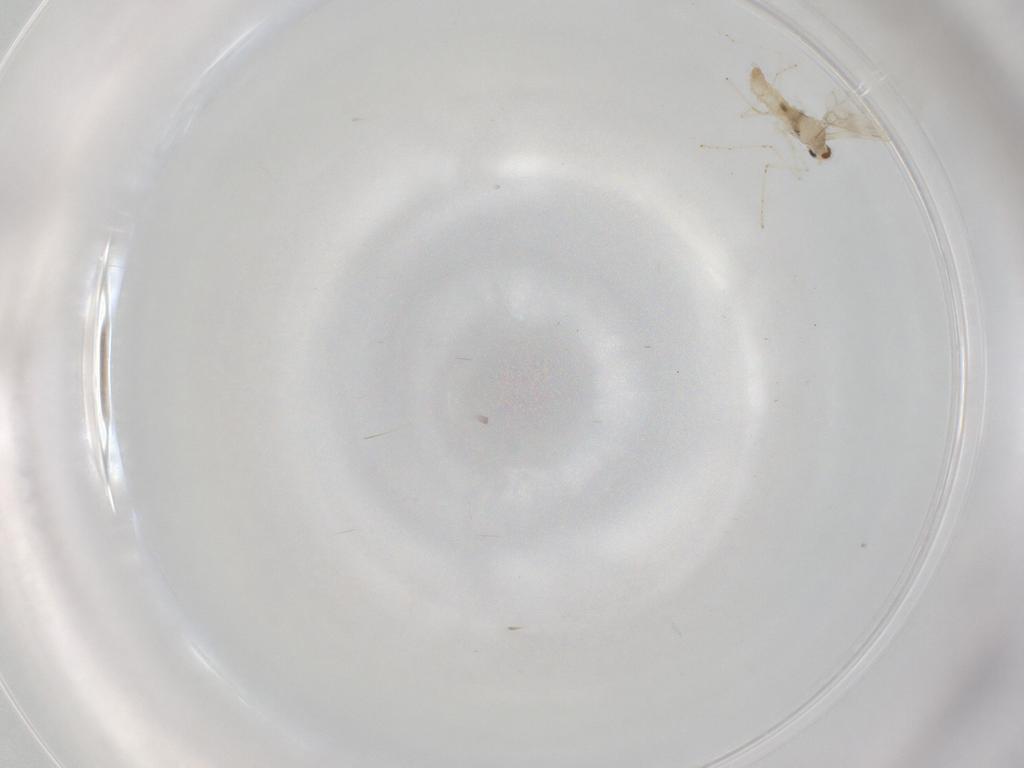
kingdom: Animalia
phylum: Arthropoda
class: Insecta
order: Diptera
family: Cecidomyiidae
